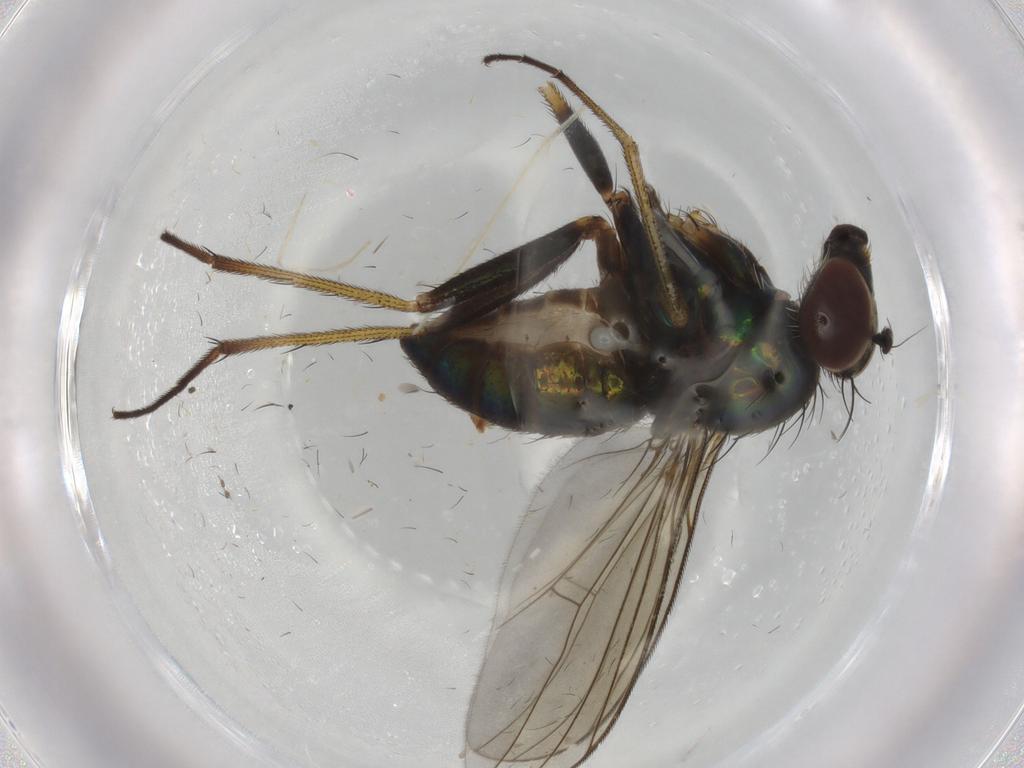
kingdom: Animalia
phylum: Arthropoda
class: Insecta
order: Diptera
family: Dolichopodidae
